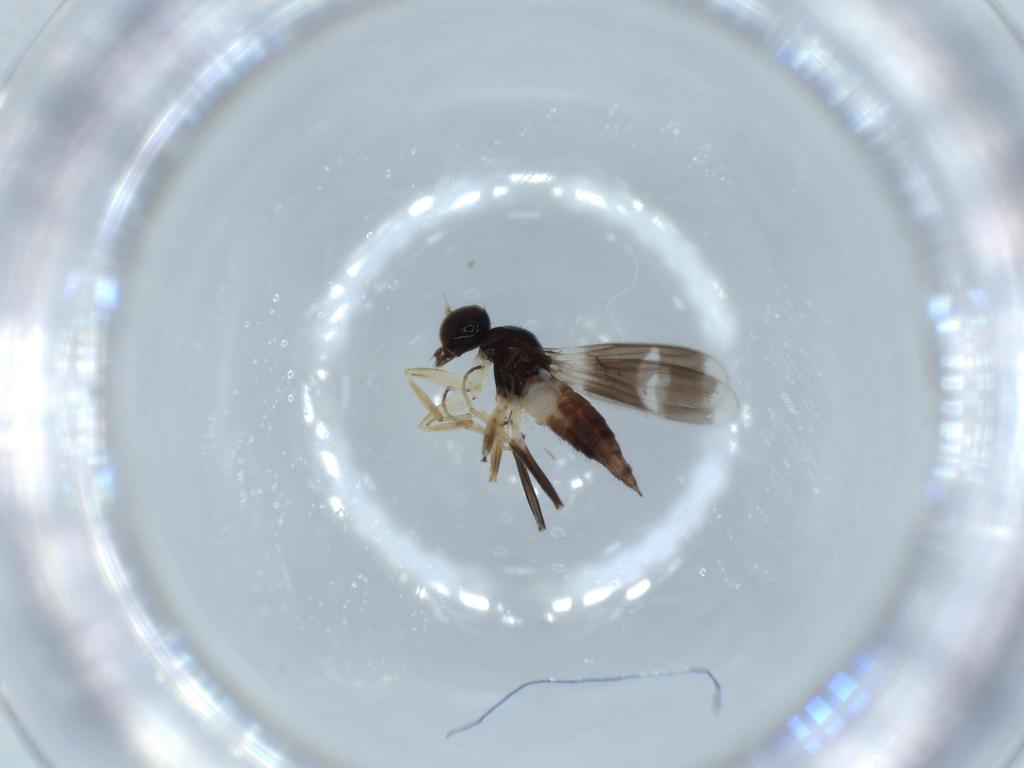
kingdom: Animalia
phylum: Arthropoda
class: Insecta
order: Diptera
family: Hybotidae
